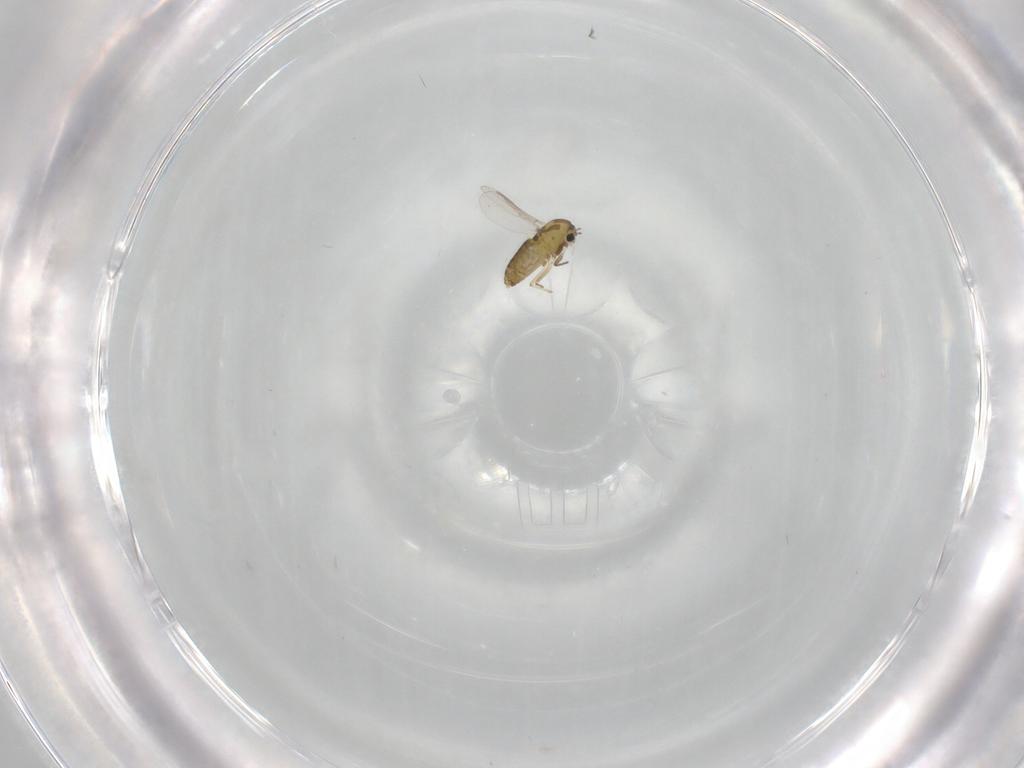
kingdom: Animalia
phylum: Arthropoda
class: Insecta
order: Diptera
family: Chironomidae
